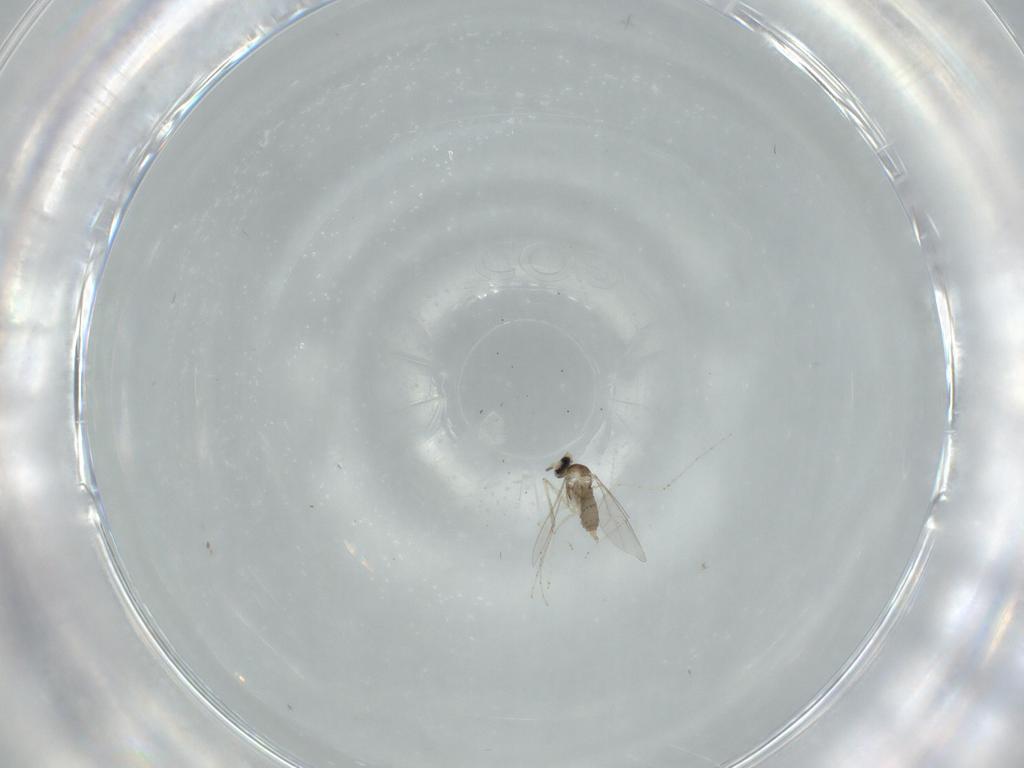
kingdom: Animalia
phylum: Arthropoda
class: Insecta
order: Diptera
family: Cecidomyiidae
